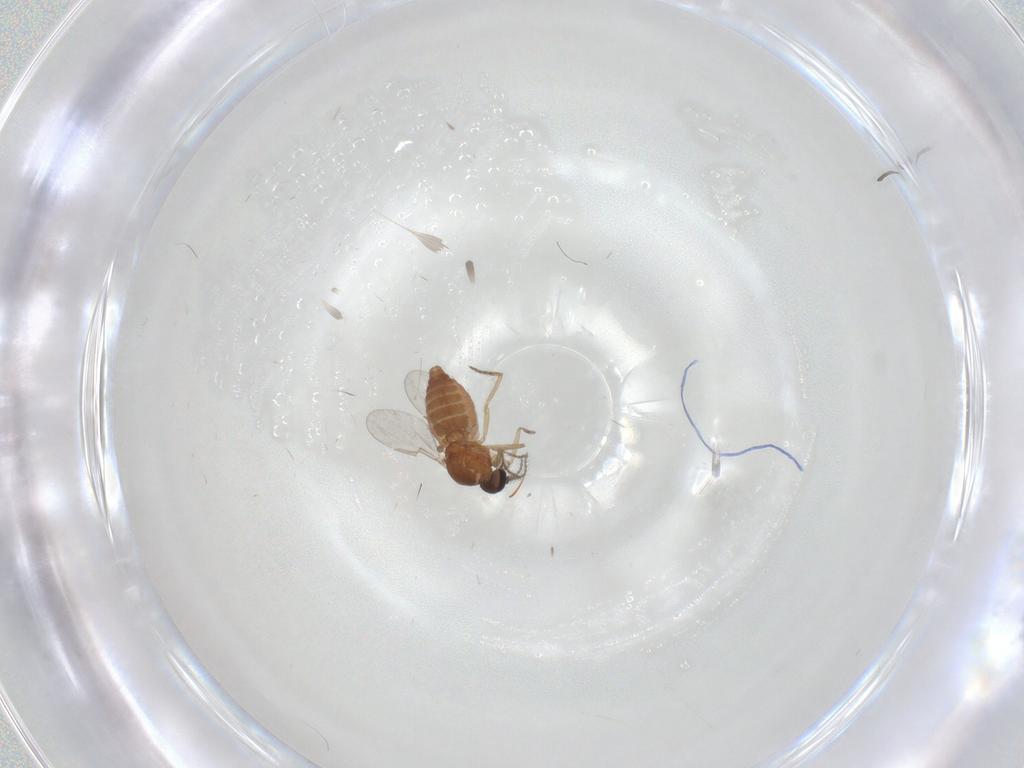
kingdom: Animalia
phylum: Arthropoda
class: Insecta
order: Diptera
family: Ceratopogonidae
